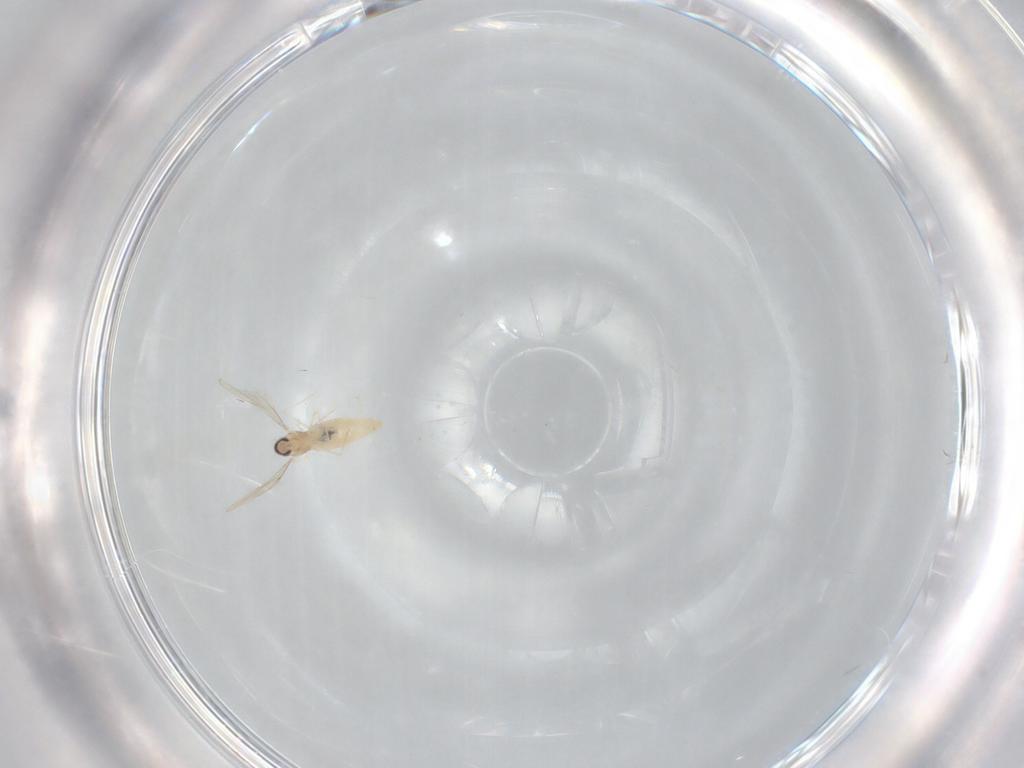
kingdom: Animalia
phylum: Arthropoda
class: Insecta
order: Diptera
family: Cecidomyiidae
